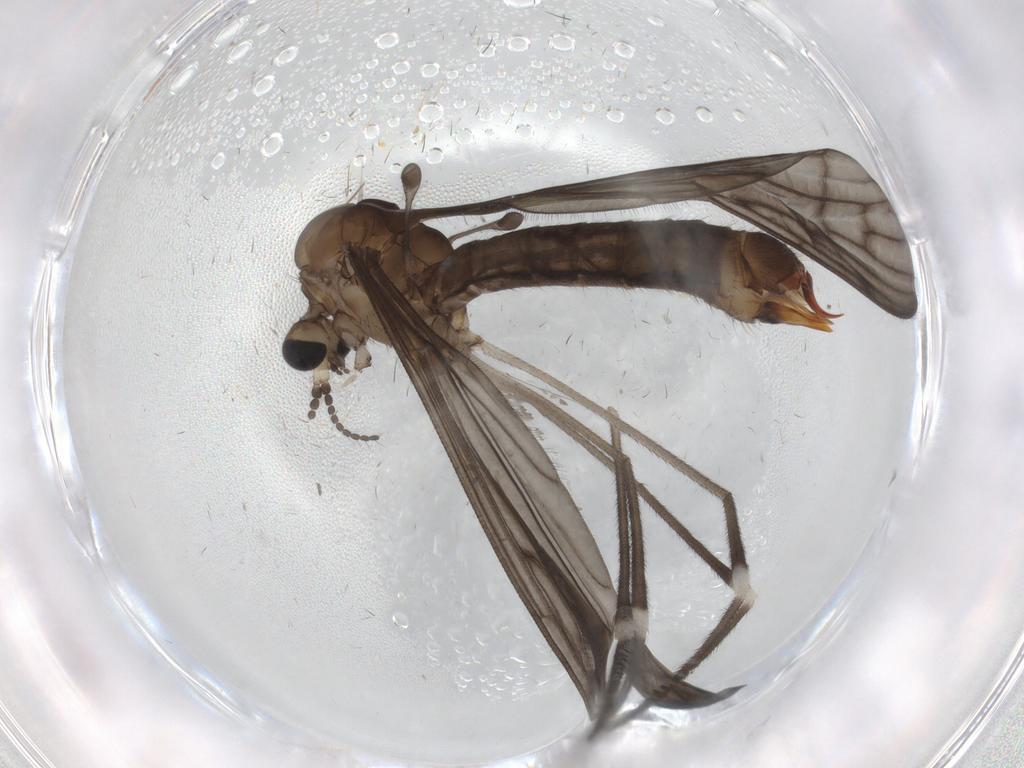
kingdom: Animalia
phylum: Arthropoda
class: Insecta
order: Diptera
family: Limoniidae
